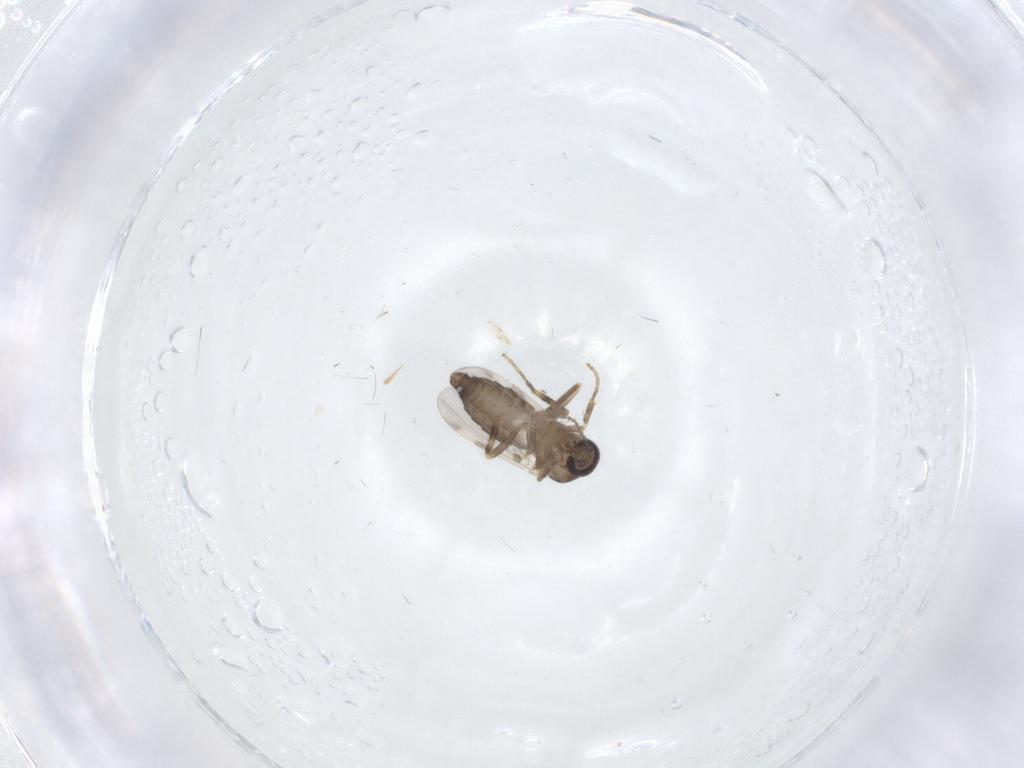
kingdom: Animalia
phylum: Arthropoda
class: Insecta
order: Diptera
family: Ceratopogonidae
